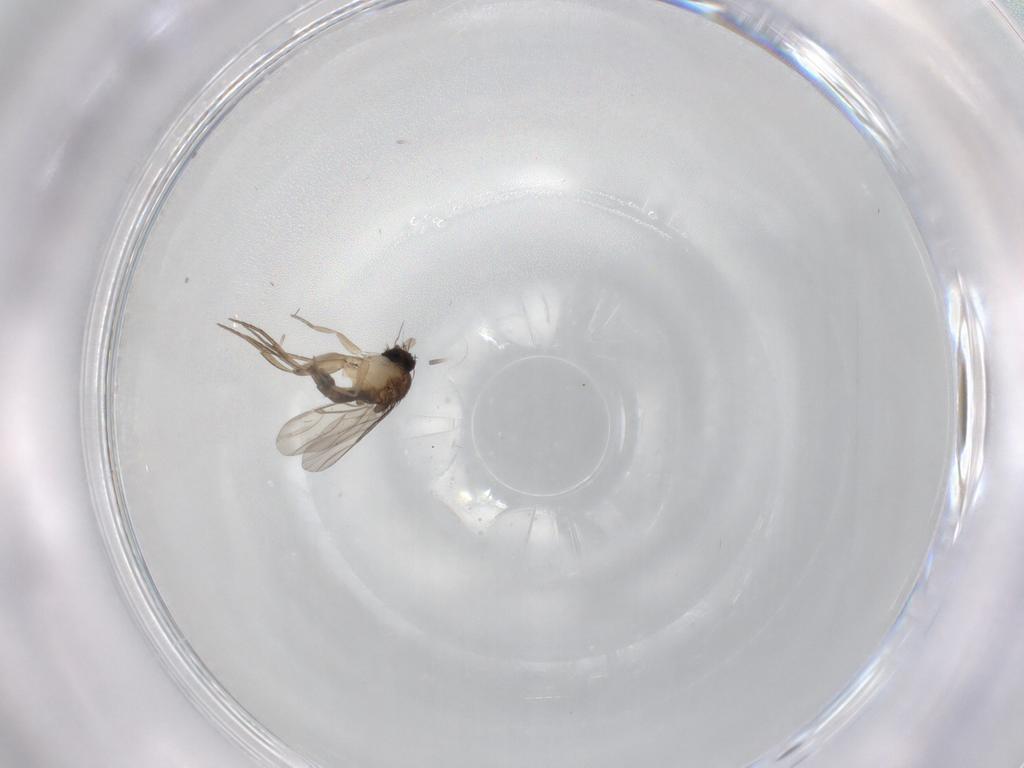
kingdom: Animalia
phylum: Arthropoda
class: Insecta
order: Diptera
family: Phoridae
